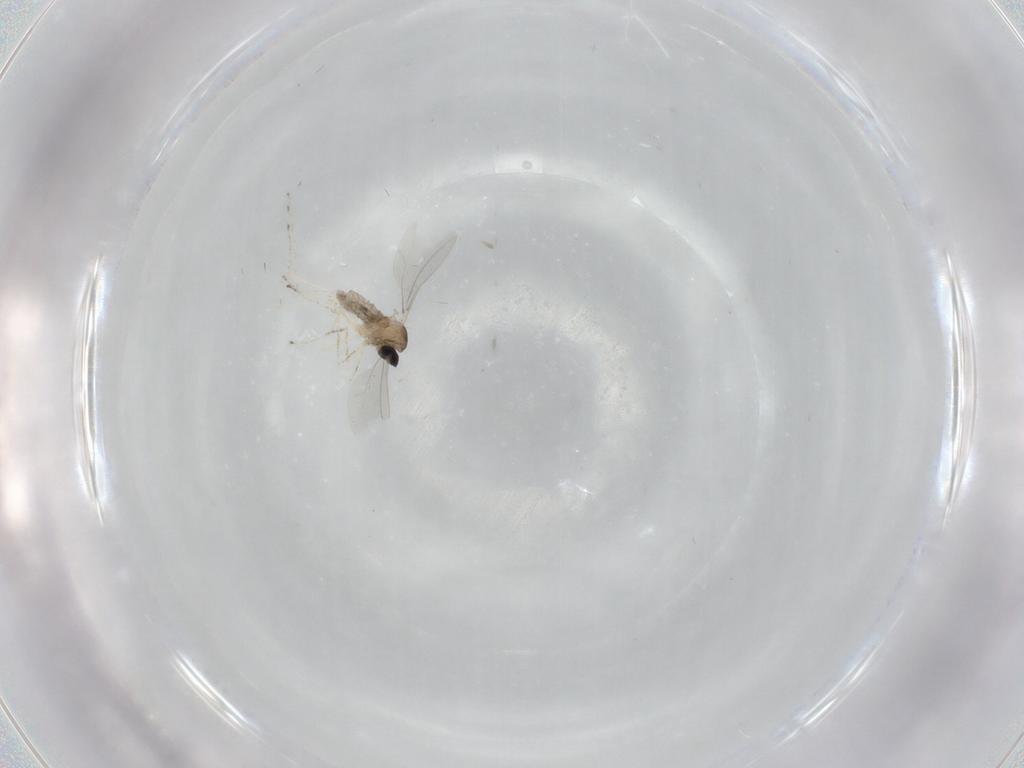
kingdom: Animalia
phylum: Arthropoda
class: Insecta
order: Diptera
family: Cecidomyiidae
